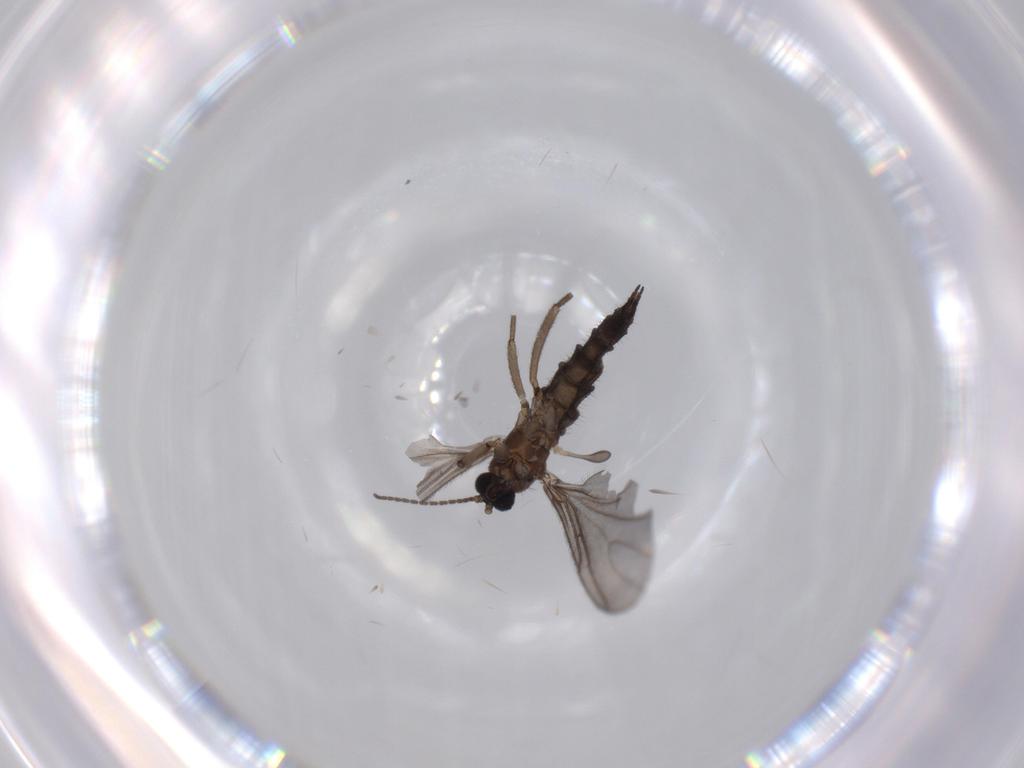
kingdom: Animalia
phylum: Arthropoda
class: Insecta
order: Diptera
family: Sciaridae
